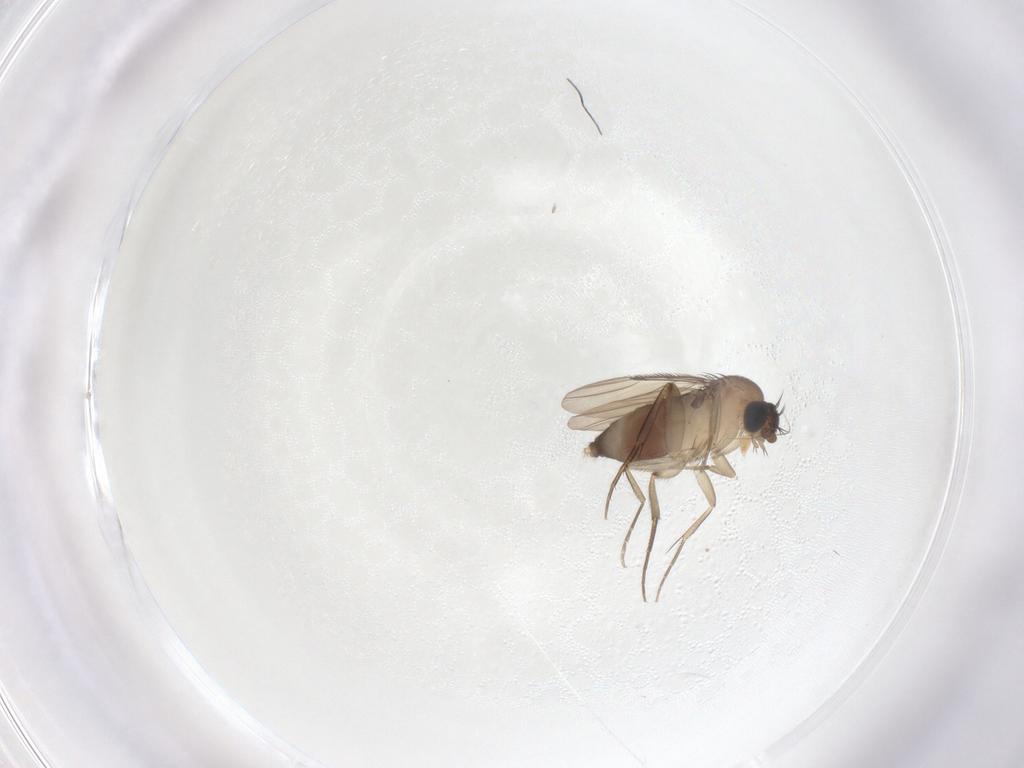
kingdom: Animalia
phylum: Arthropoda
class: Insecta
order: Diptera
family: Phoridae
